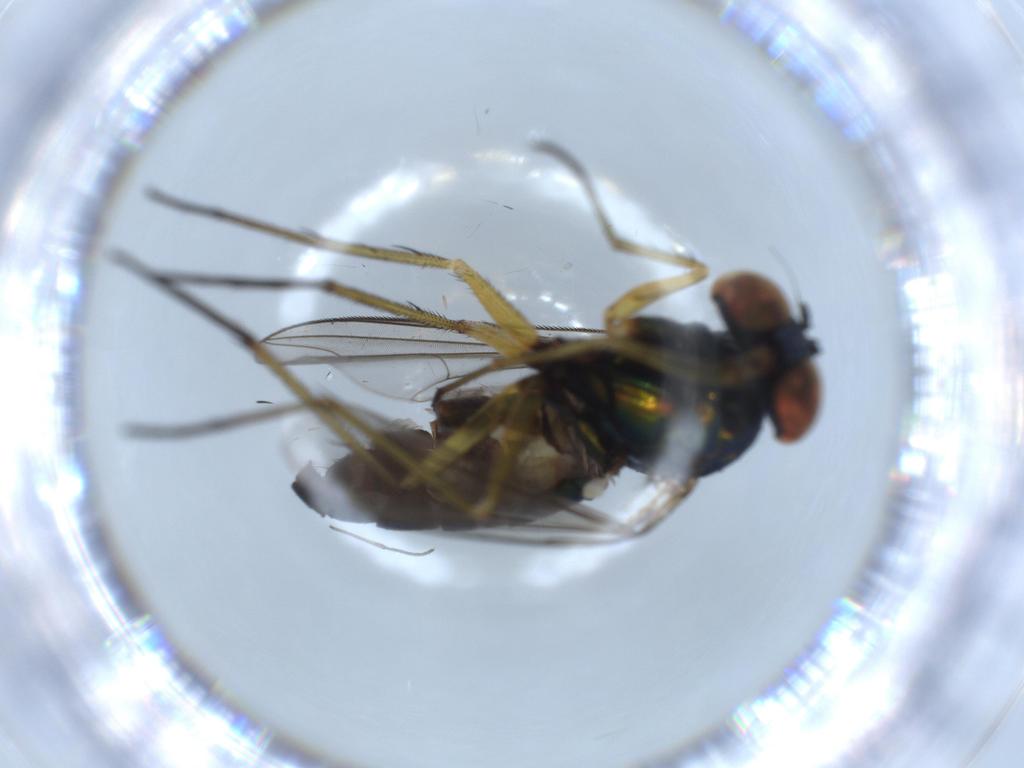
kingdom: Animalia
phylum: Arthropoda
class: Insecta
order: Diptera
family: Dolichopodidae
